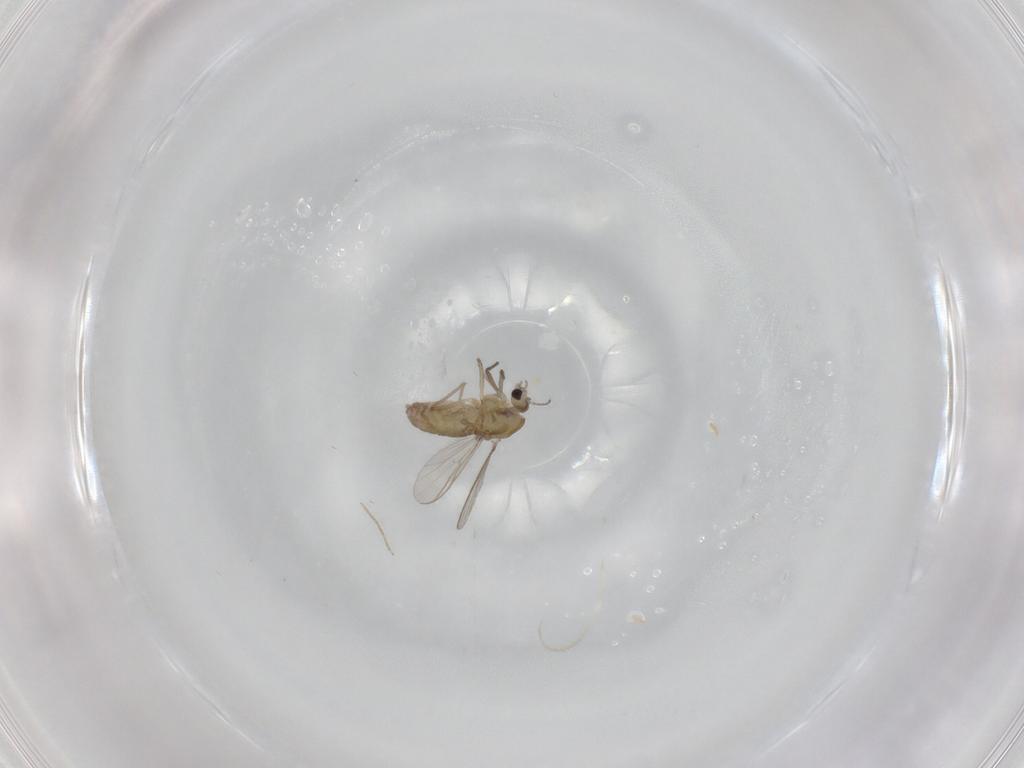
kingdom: Animalia
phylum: Arthropoda
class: Insecta
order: Diptera
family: Chironomidae
